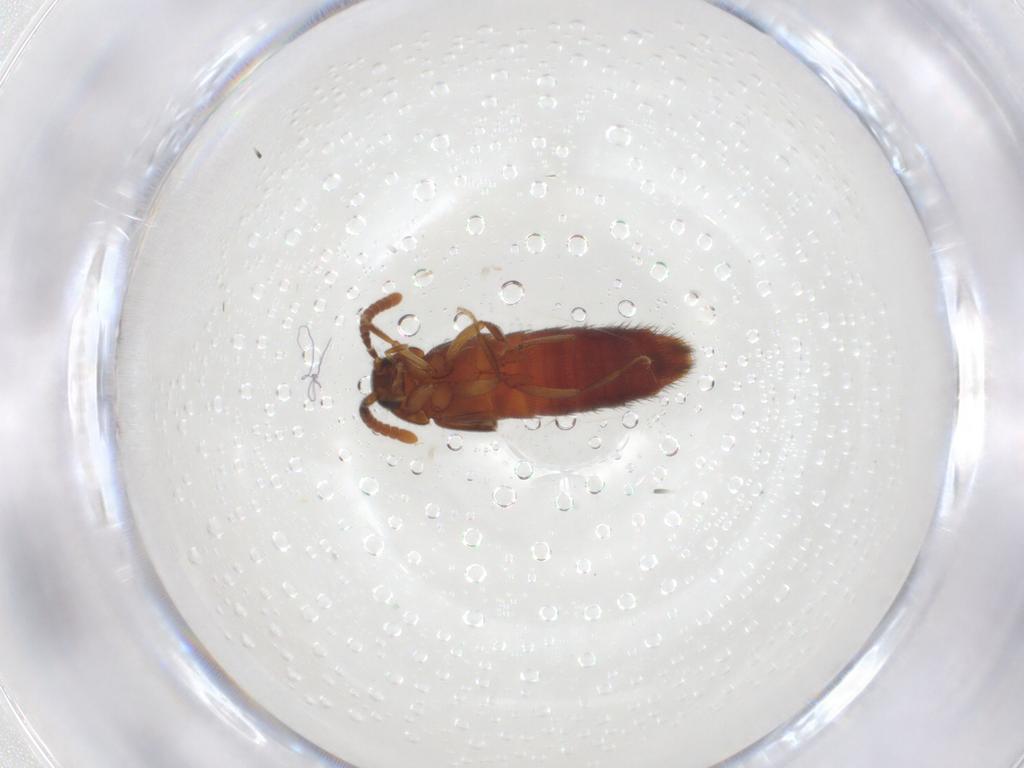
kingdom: Animalia
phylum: Arthropoda
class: Insecta
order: Coleoptera
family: Staphylinidae
